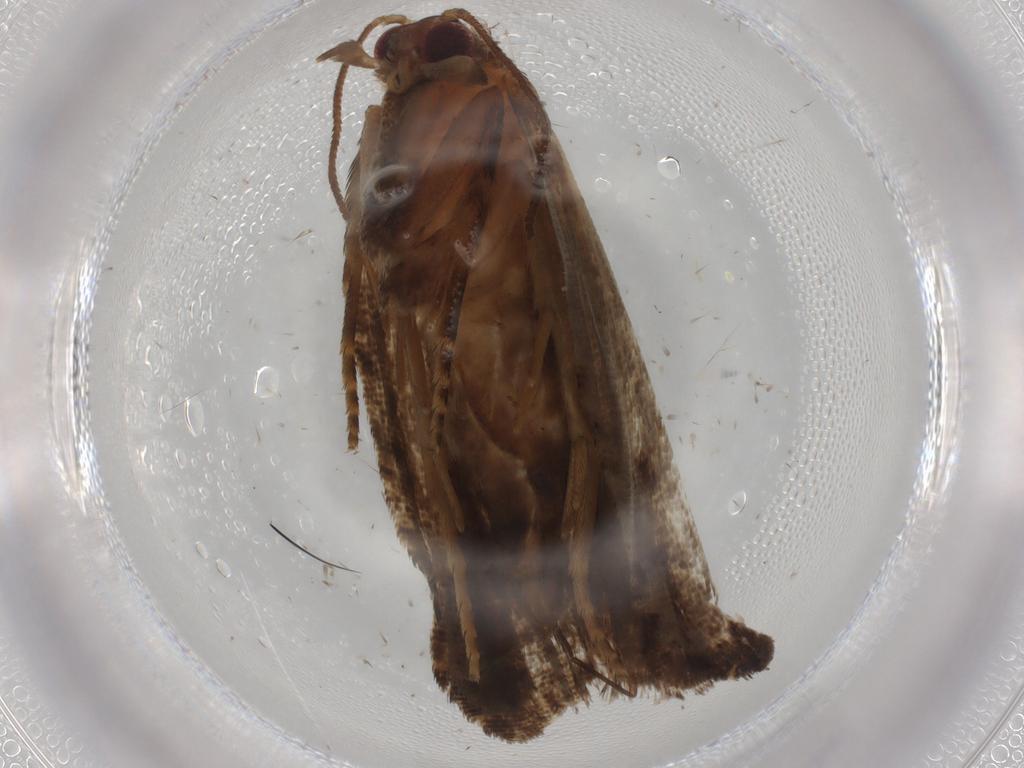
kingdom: Animalia
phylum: Arthropoda
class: Insecta
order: Lepidoptera
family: Tortricidae
